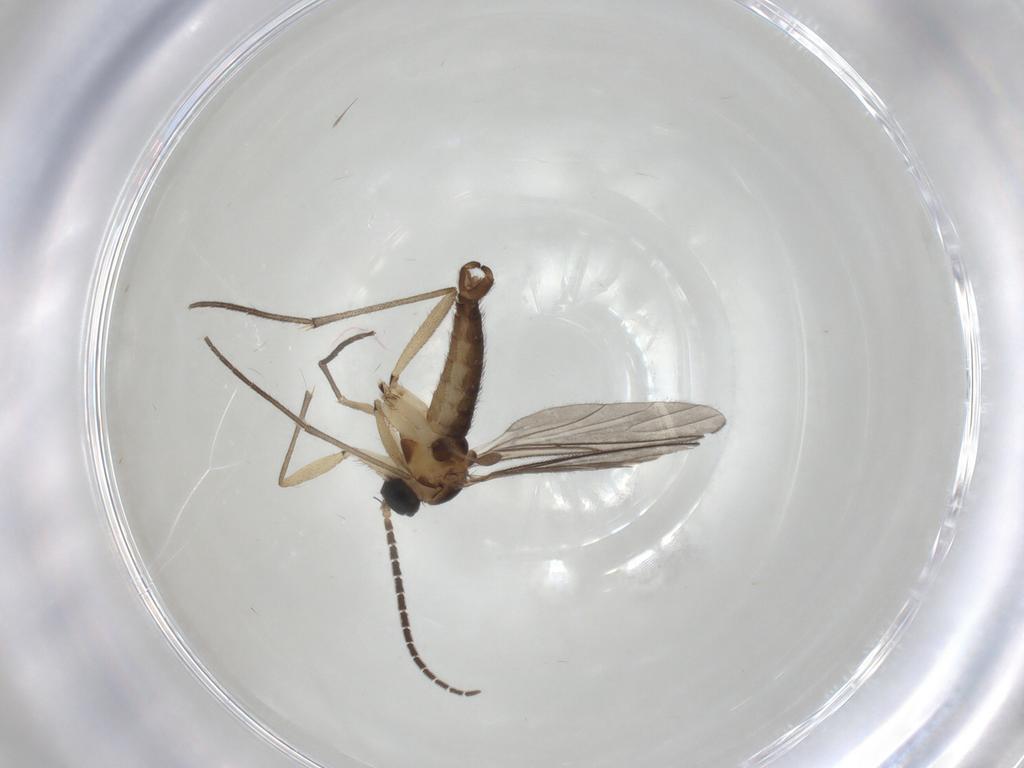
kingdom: Animalia
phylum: Arthropoda
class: Insecta
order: Diptera
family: Sciaridae
